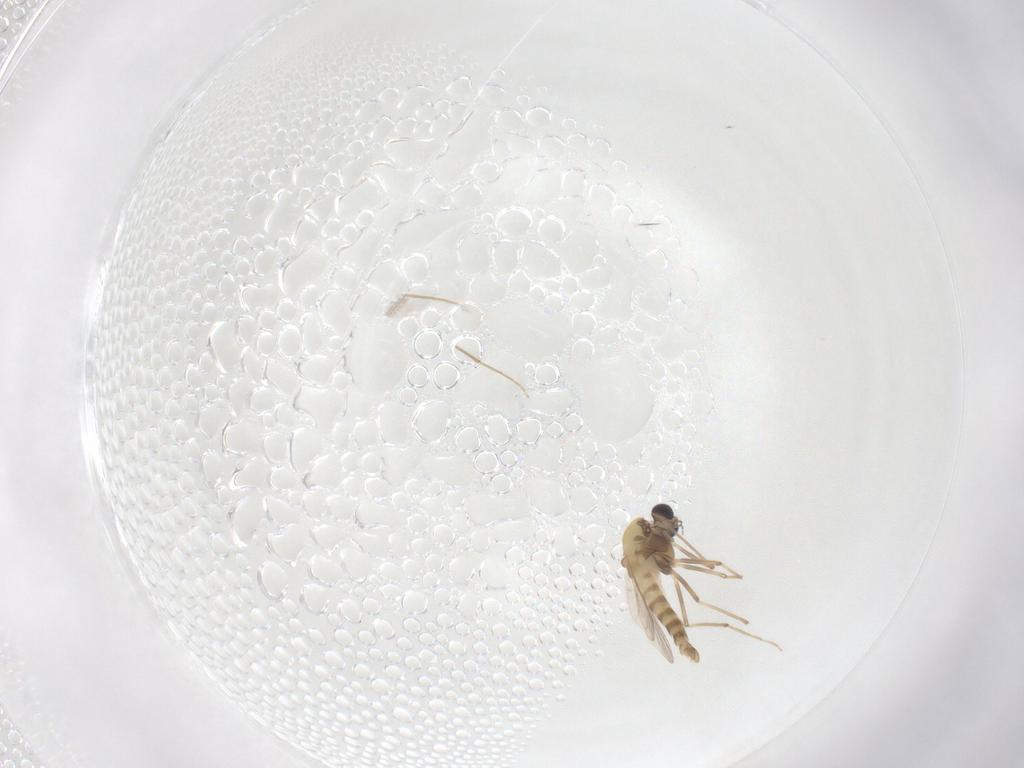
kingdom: Animalia
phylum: Arthropoda
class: Insecta
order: Diptera
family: Chironomidae
